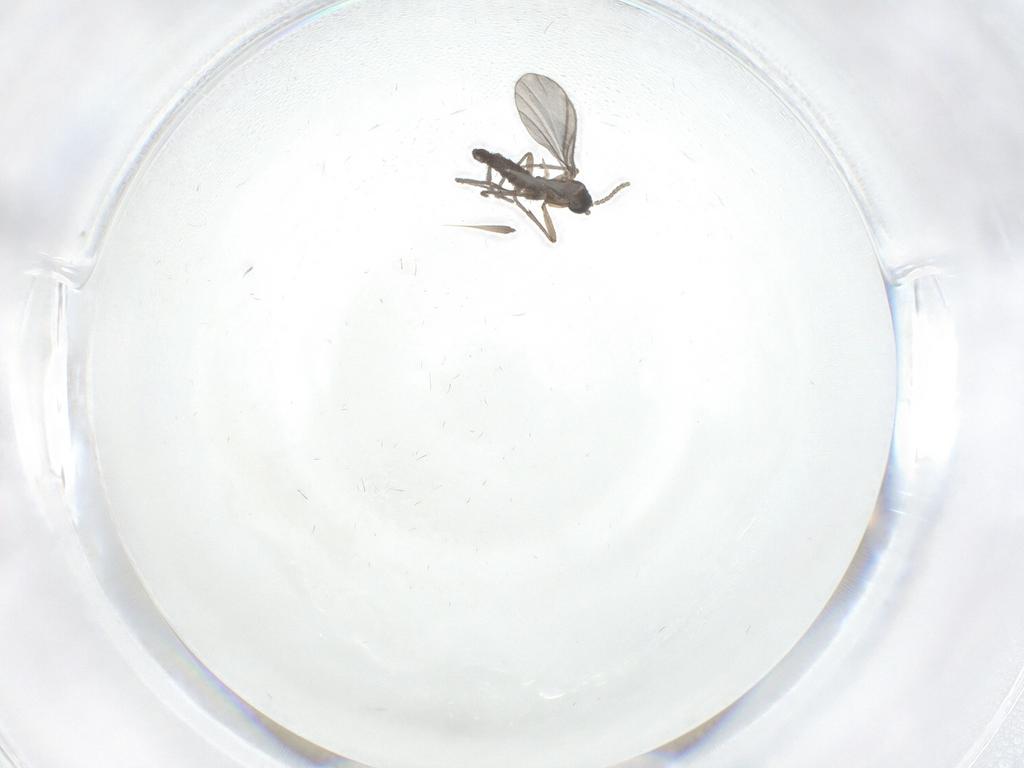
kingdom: Animalia
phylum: Arthropoda
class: Insecta
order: Diptera
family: Sciaridae
